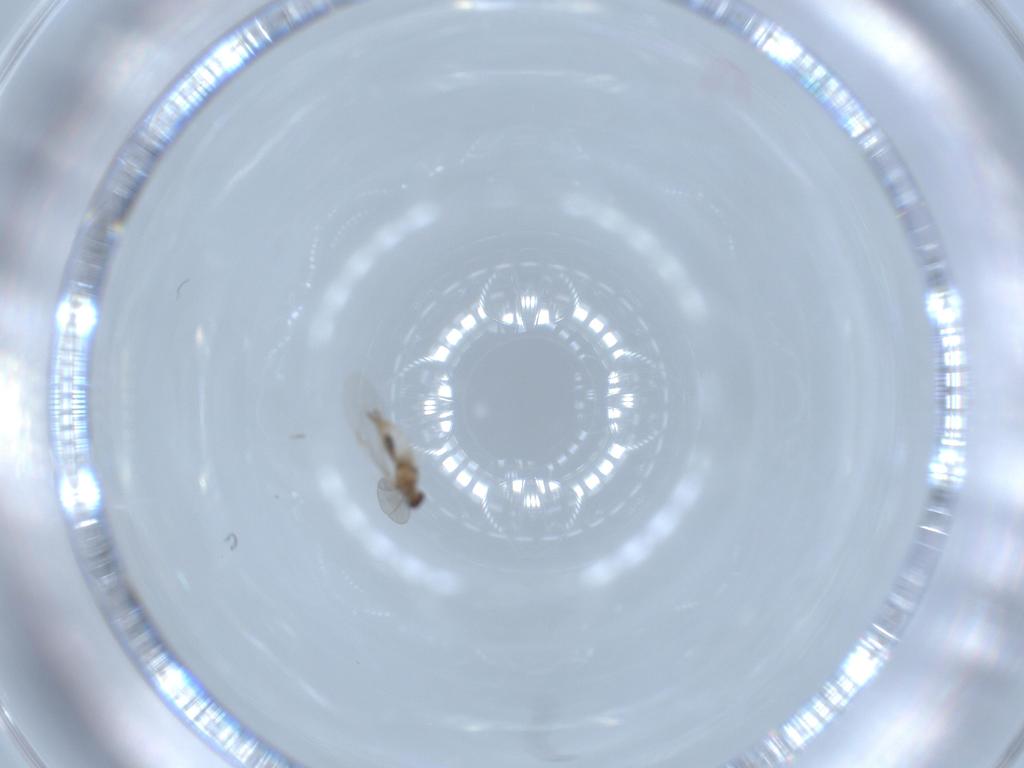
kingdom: Animalia
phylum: Arthropoda
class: Insecta
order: Diptera
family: Cecidomyiidae
